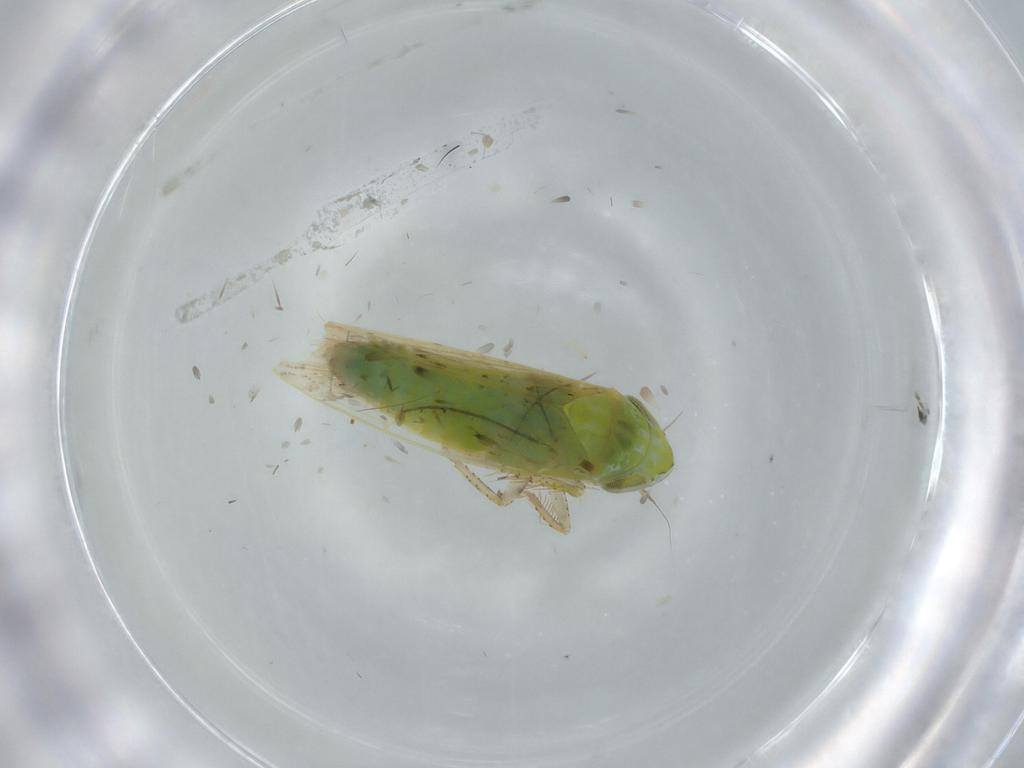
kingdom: Animalia
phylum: Arthropoda
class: Insecta
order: Hemiptera
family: Cicadellidae
